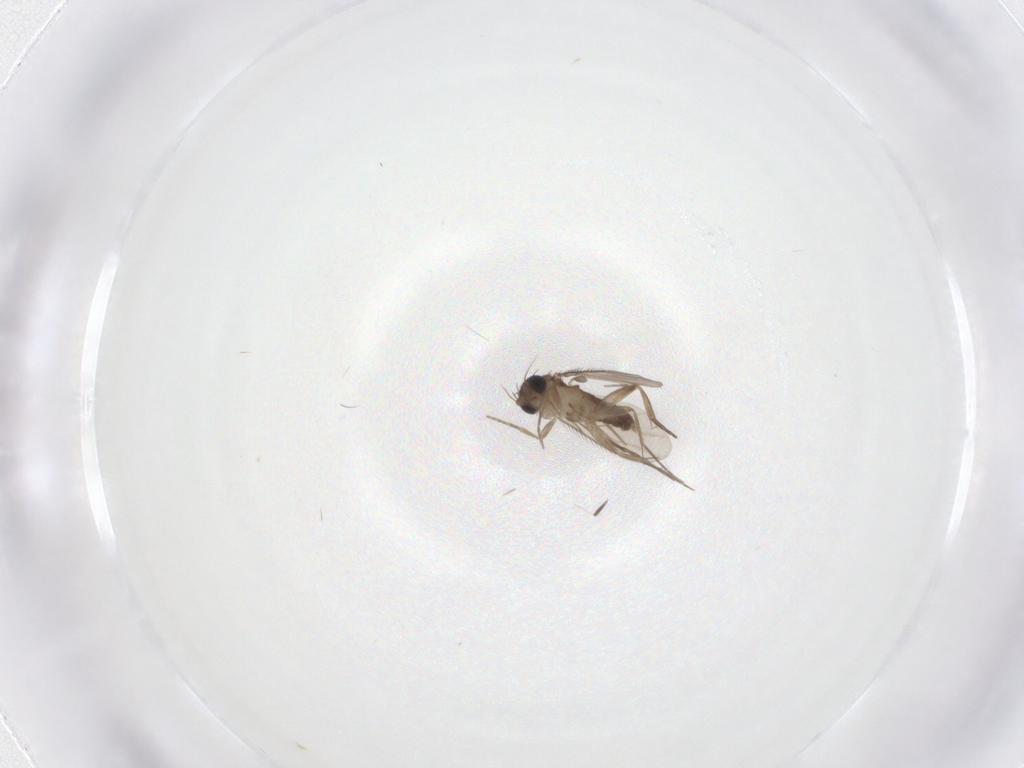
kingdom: Animalia
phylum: Arthropoda
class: Insecta
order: Diptera
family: Phoridae
